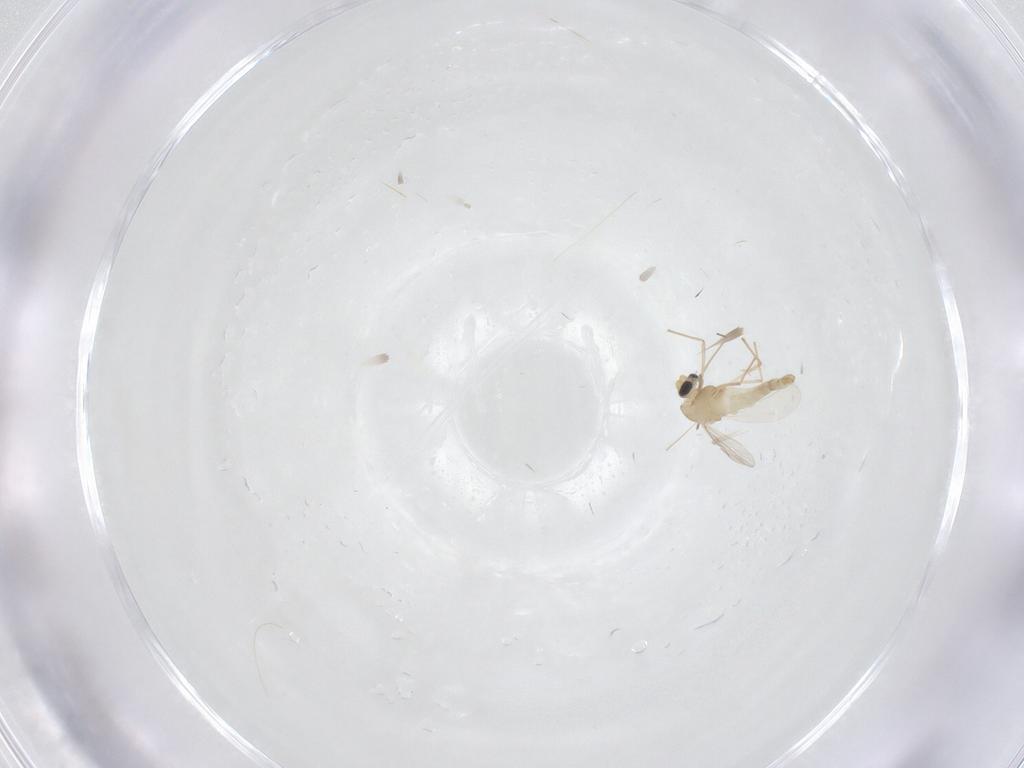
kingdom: Animalia
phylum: Arthropoda
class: Insecta
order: Diptera
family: Chironomidae
